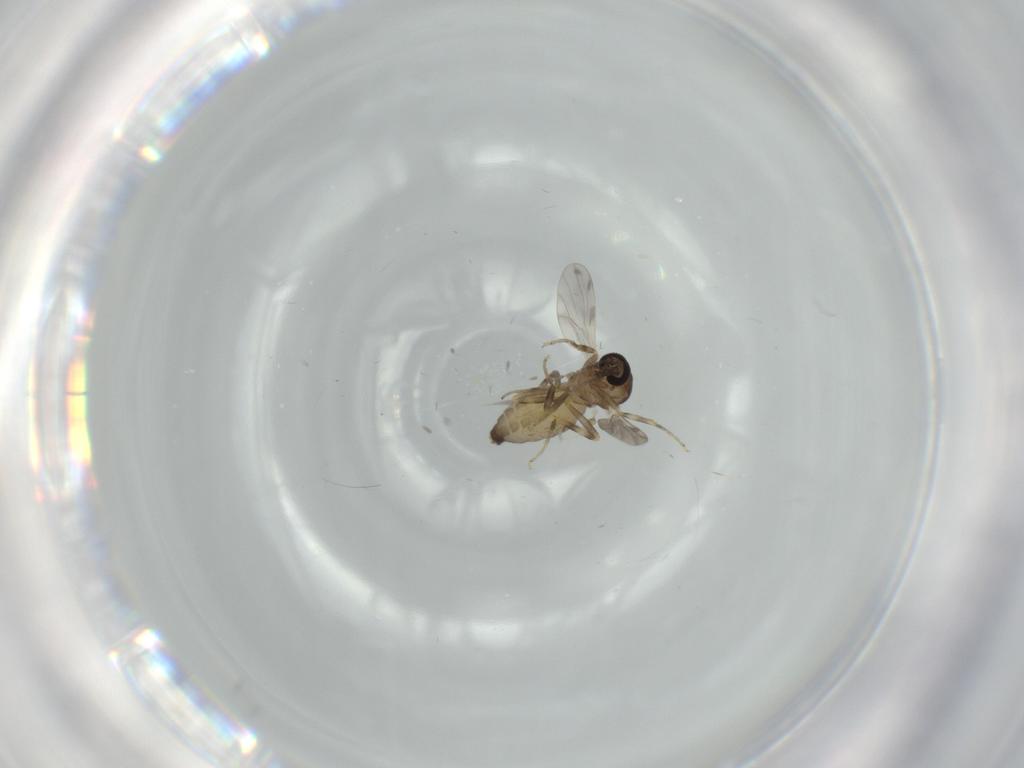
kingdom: Animalia
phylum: Arthropoda
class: Insecta
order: Diptera
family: Ceratopogonidae
